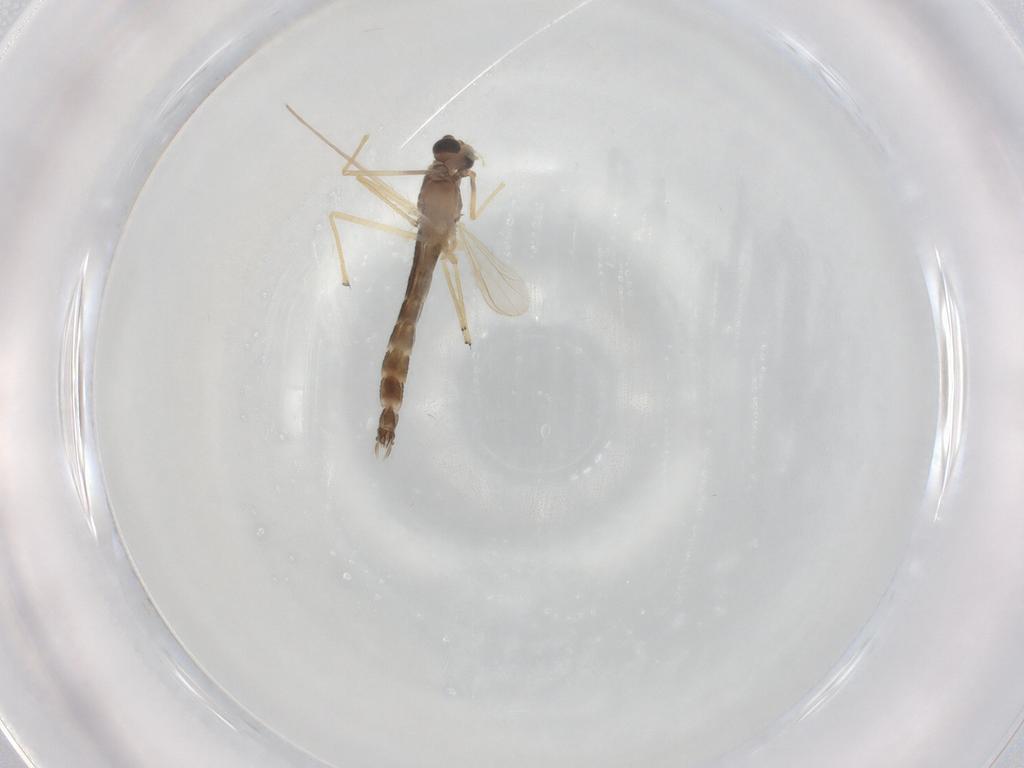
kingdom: Animalia
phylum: Arthropoda
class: Insecta
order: Diptera
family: Chironomidae
